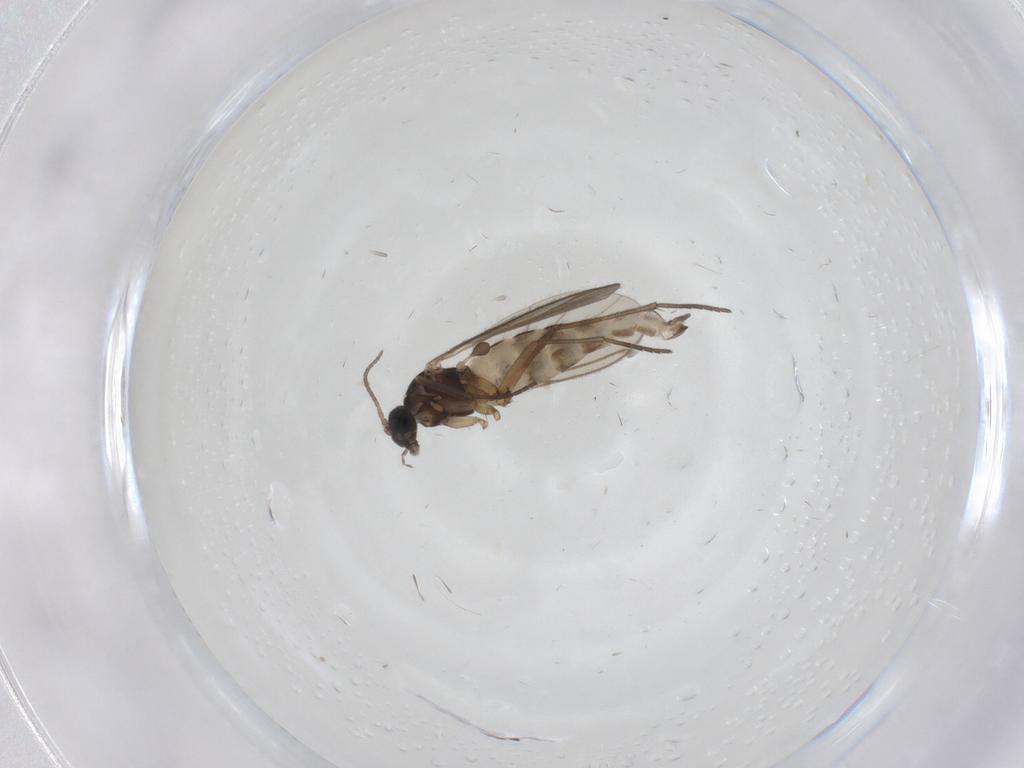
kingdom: Animalia
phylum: Arthropoda
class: Insecta
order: Diptera
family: Sciaridae
